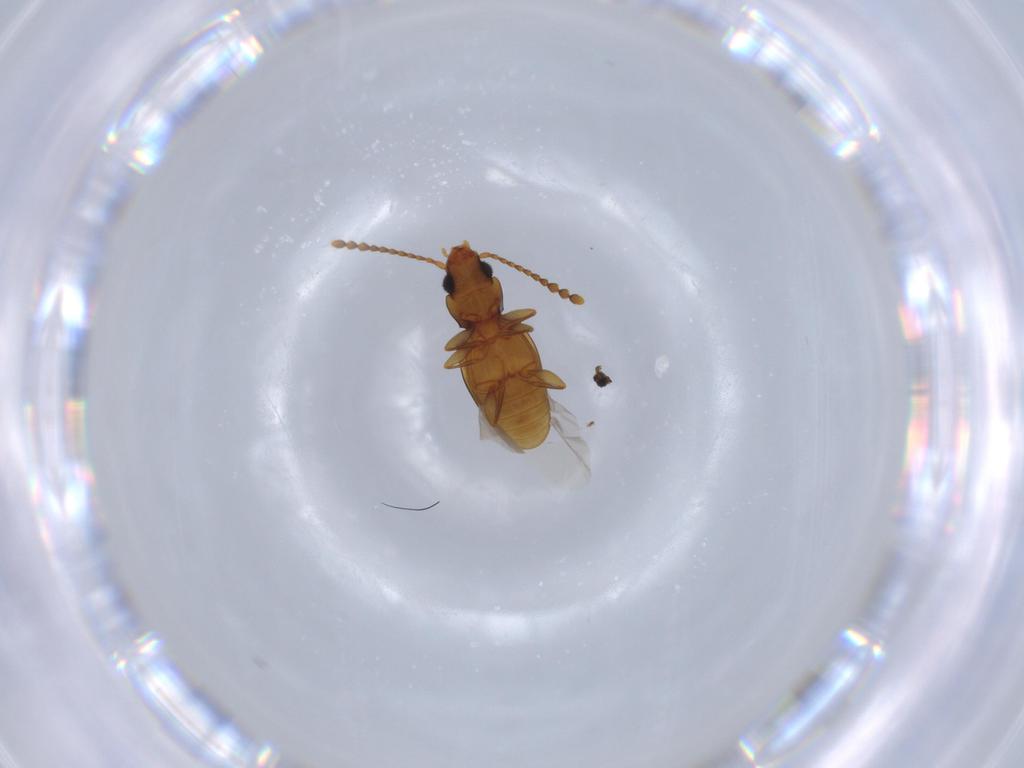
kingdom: Animalia
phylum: Arthropoda
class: Insecta
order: Coleoptera
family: Laemophloeidae
